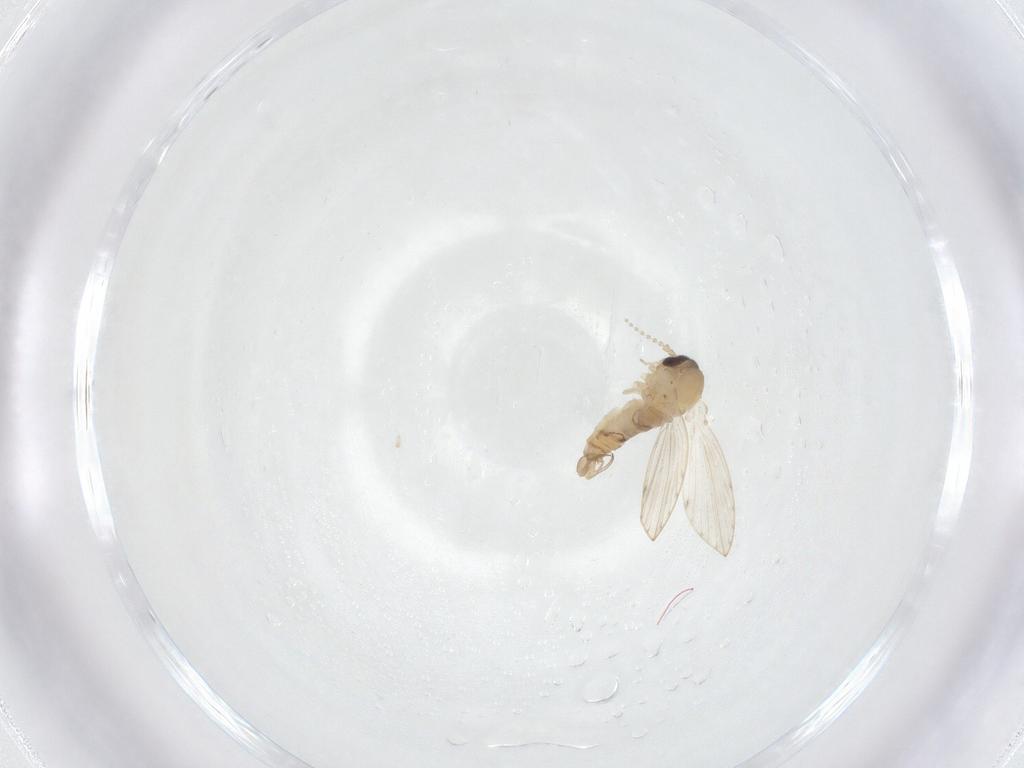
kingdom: Animalia
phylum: Arthropoda
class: Insecta
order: Diptera
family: Psychodidae
